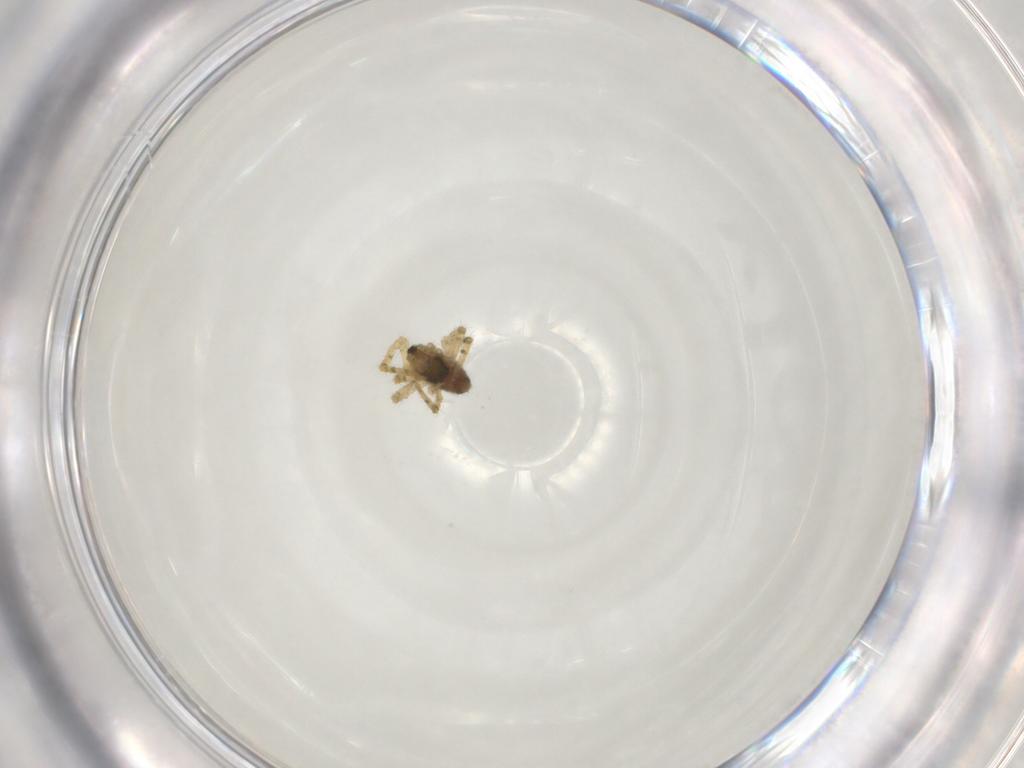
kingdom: Animalia
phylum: Arthropoda
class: Arachnida
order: Araneae
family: Theridiidae
